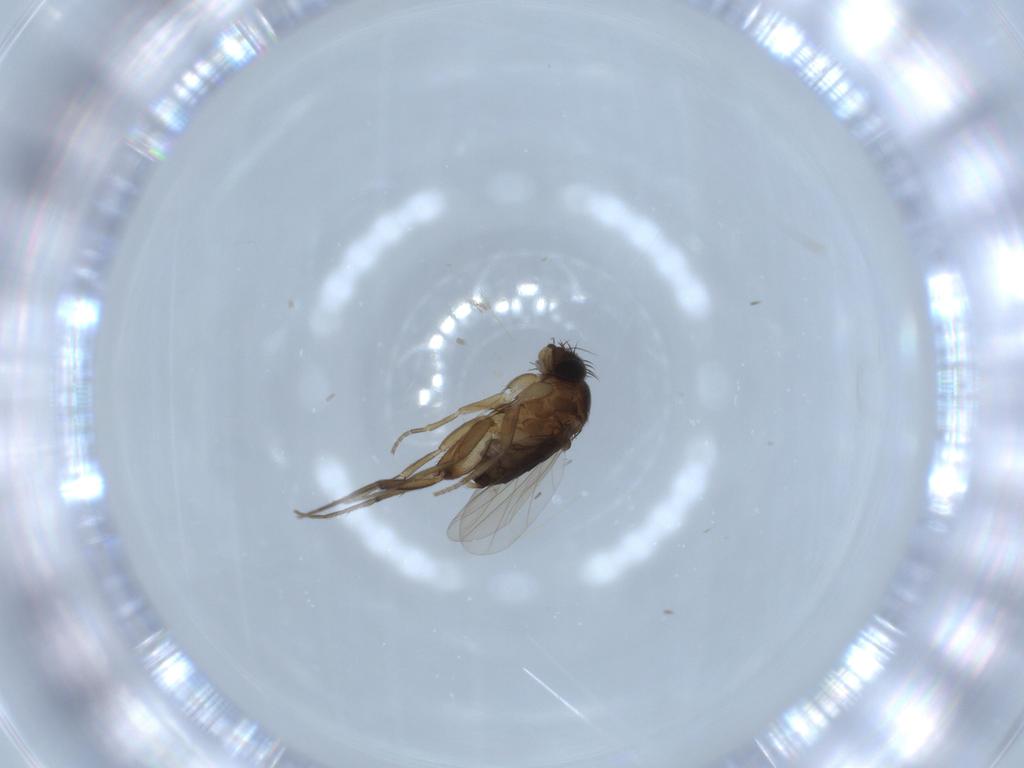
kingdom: Animalia
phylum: Arthropoda
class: Insecta
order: Diptera
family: Phoridae
